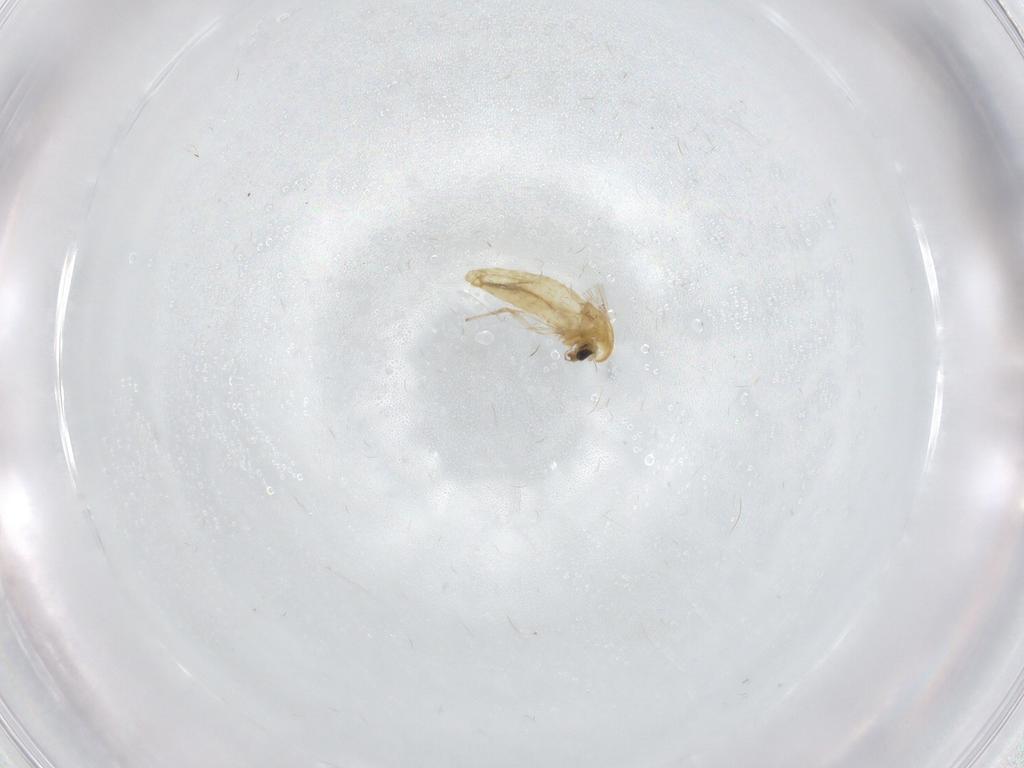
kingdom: Animalia
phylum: Arthropoda
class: Insecta
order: Diptera
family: Chironomidae
